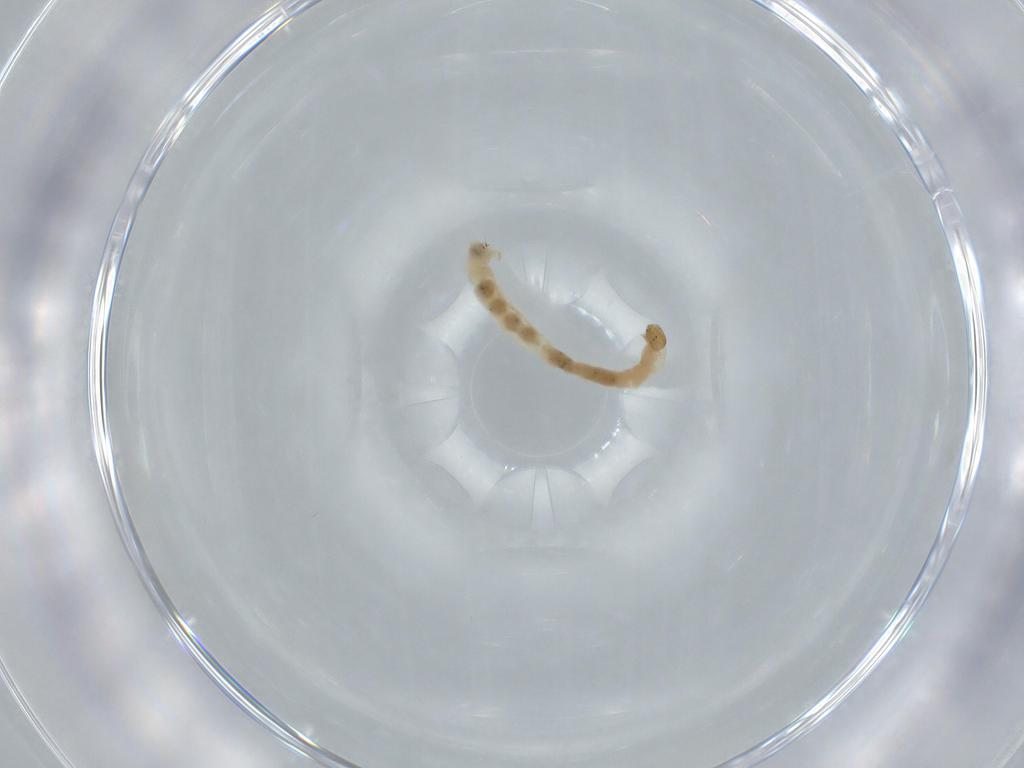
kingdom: Animalia
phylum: Arthropoda
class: Insecta
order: Diptera
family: Chironomidae
